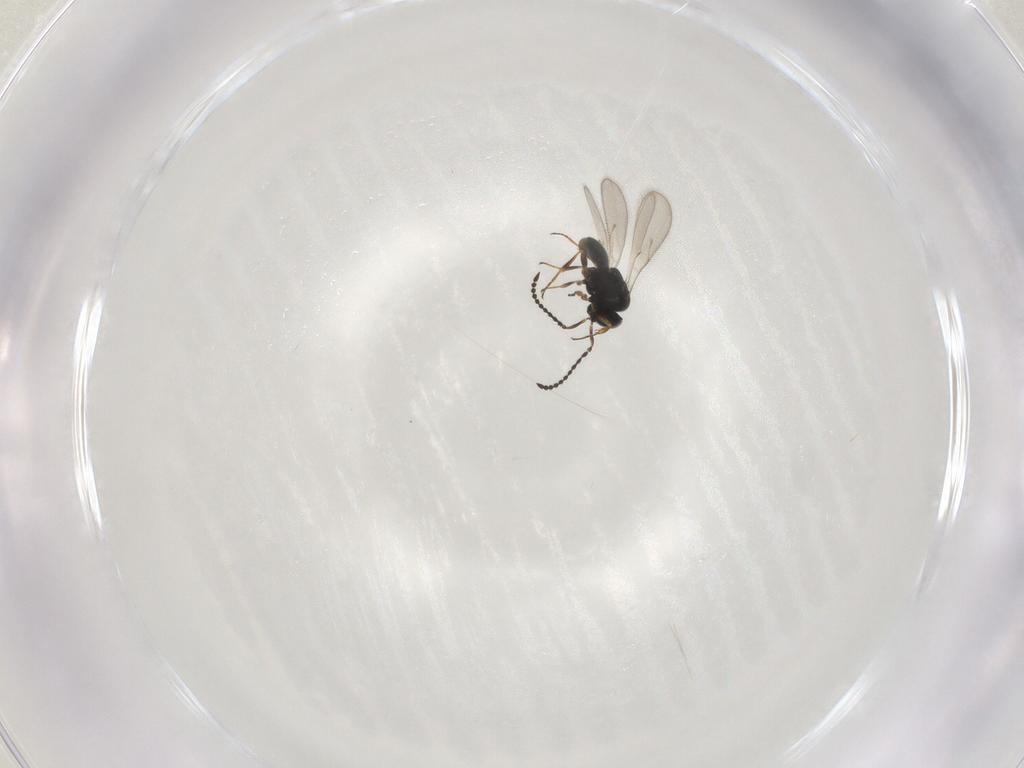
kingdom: Animalia
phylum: Arthropoda
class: Insecta
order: Hymenoptera
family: Scelionidae
